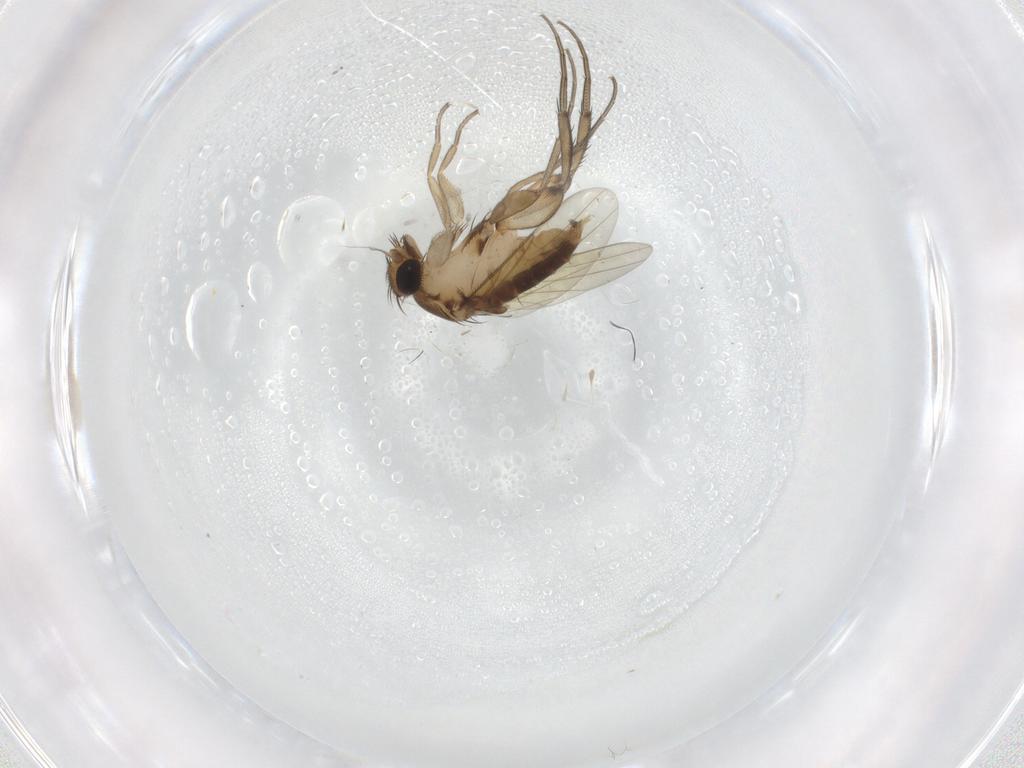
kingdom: Animalia
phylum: Arthropoda
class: Insecta
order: Diptera
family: Phoridae
